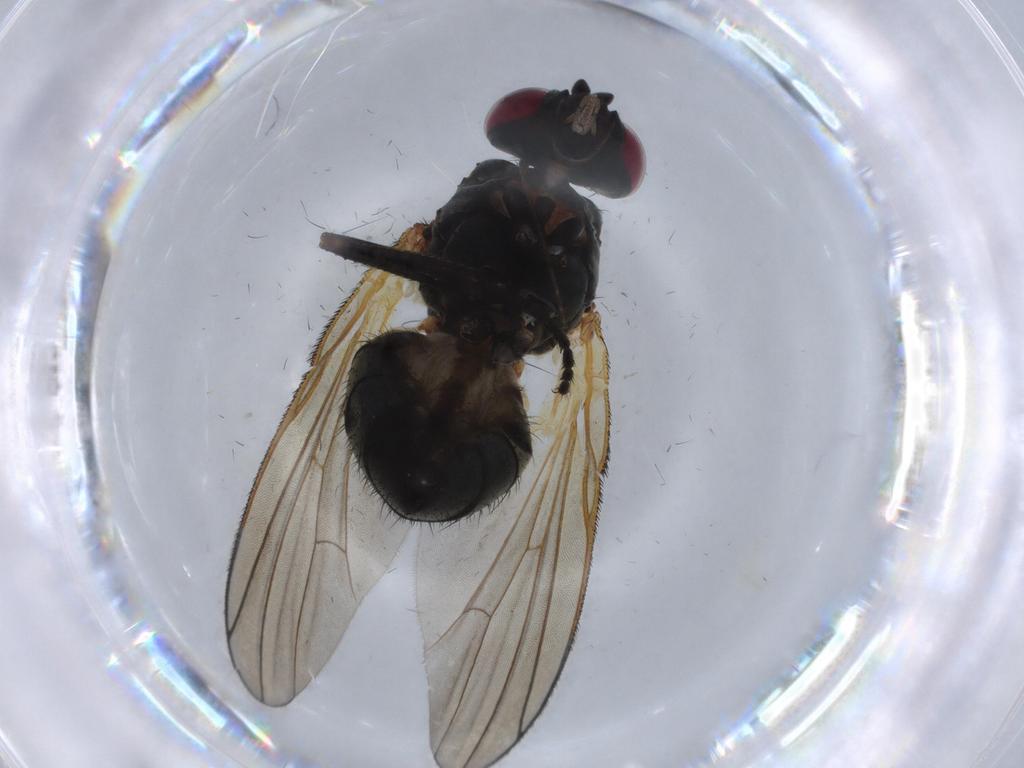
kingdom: Animalia
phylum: Arthropoda
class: Insecta
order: Diptera
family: Sciaridae
